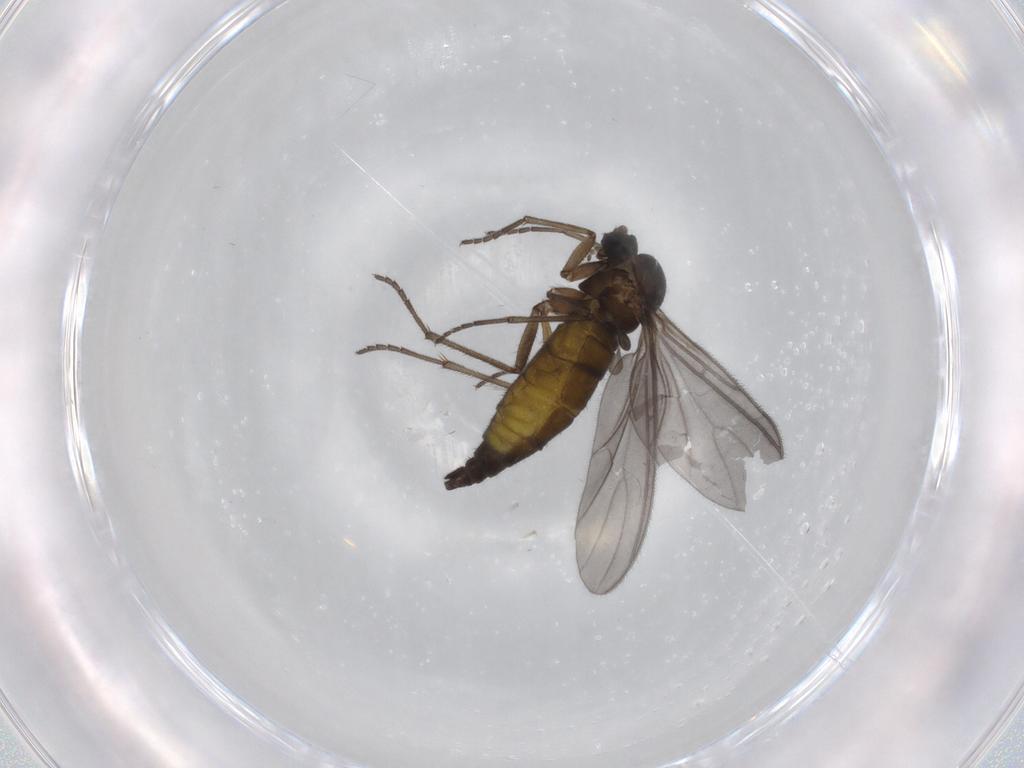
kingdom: Animalia
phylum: Arthropoda
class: Insecta
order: Diptera
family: Sciaridae
